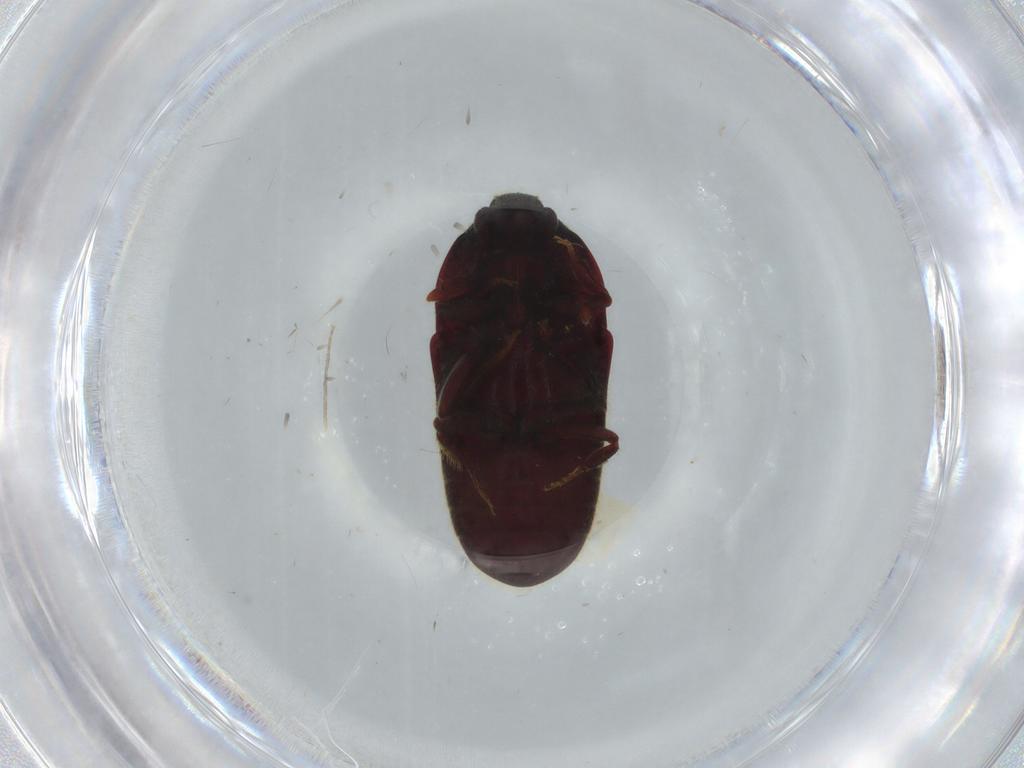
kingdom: Animalia
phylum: Arthropoda
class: Insecta
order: Coleoptera
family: Throscidae
